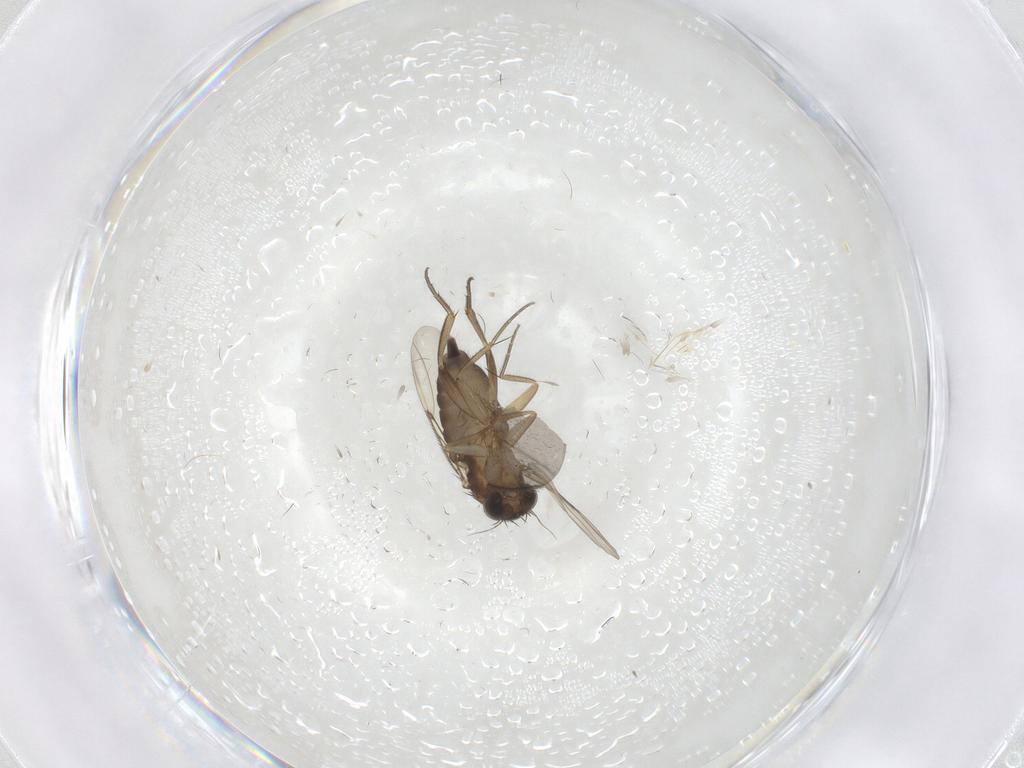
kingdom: Animalia
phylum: Arthropoda
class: Insecta
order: Diptera
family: Phoridae
